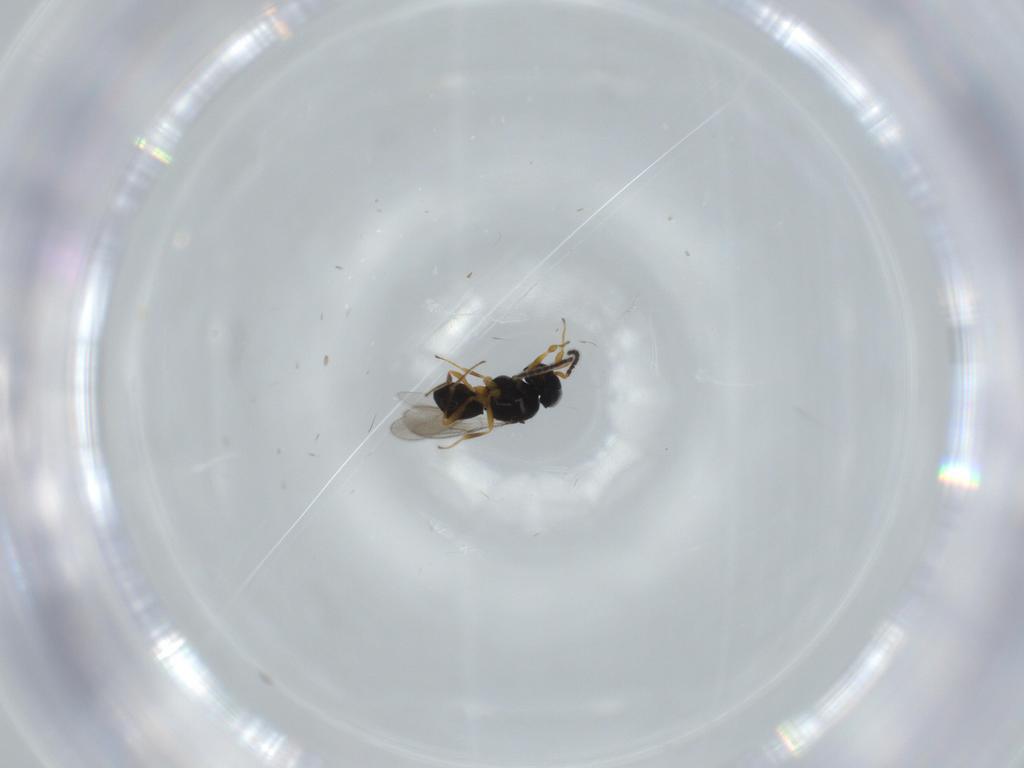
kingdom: Animalia
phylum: Arthropoda
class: Insecta
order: Hymenoptera
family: Scelionidae
